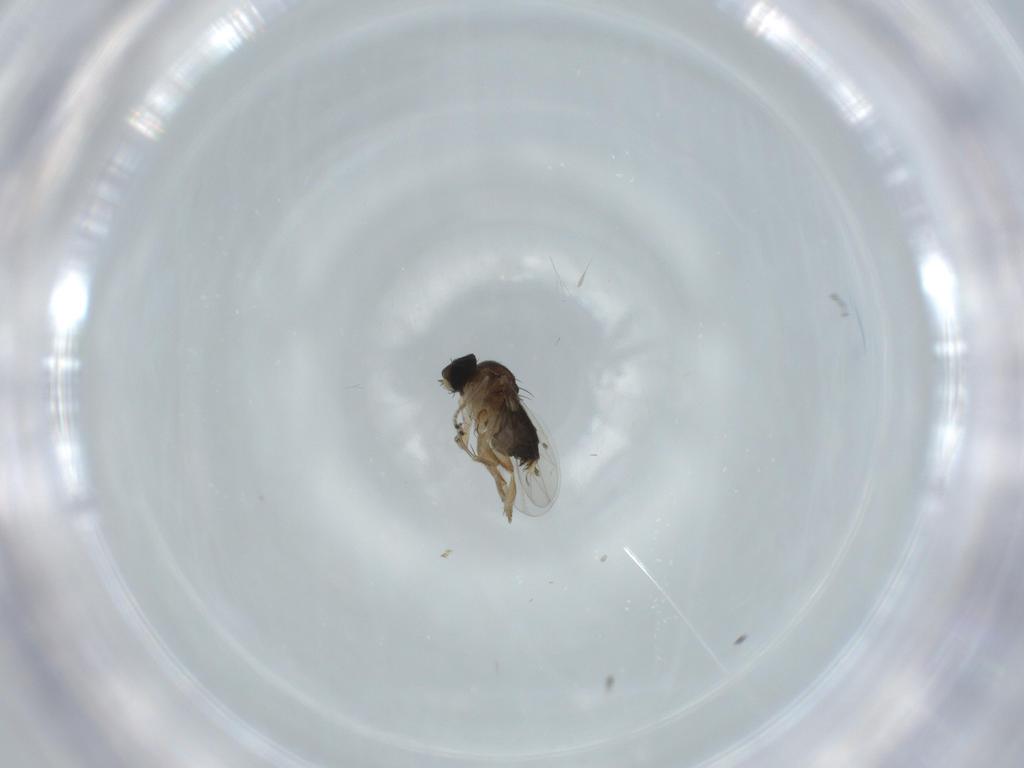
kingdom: Animalia
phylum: Arthropoda
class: Insecta
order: Diptera
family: Phoridae
